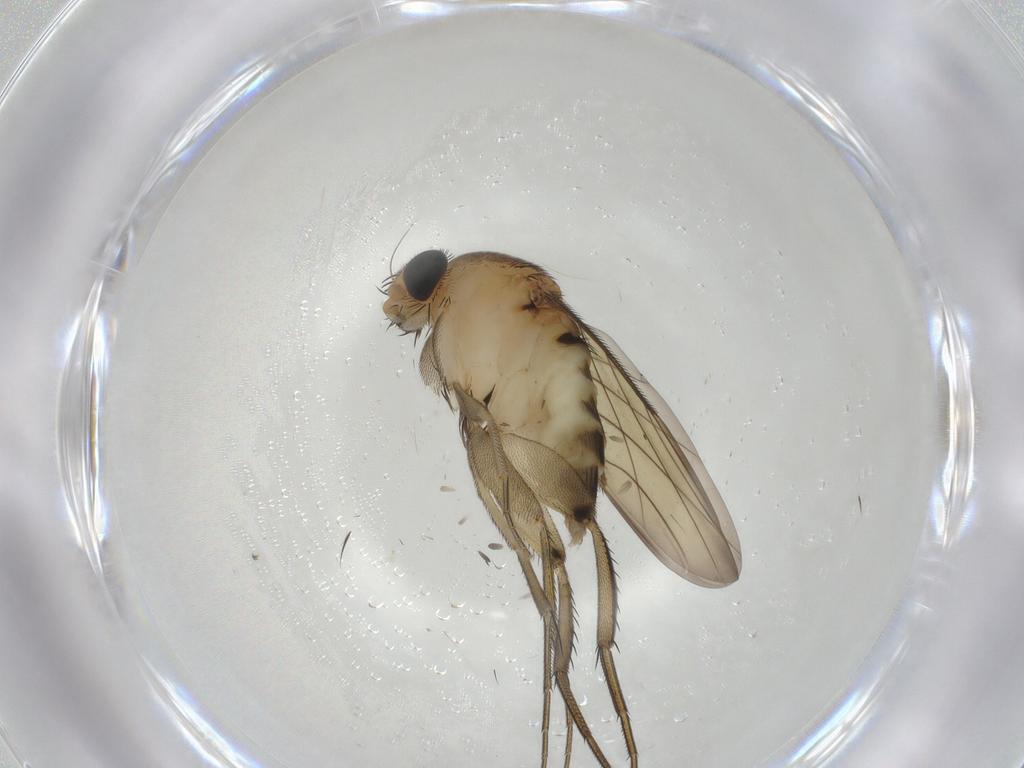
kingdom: Animalia
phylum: Arthropoda
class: Insecta
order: Diptera
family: Phoridae
